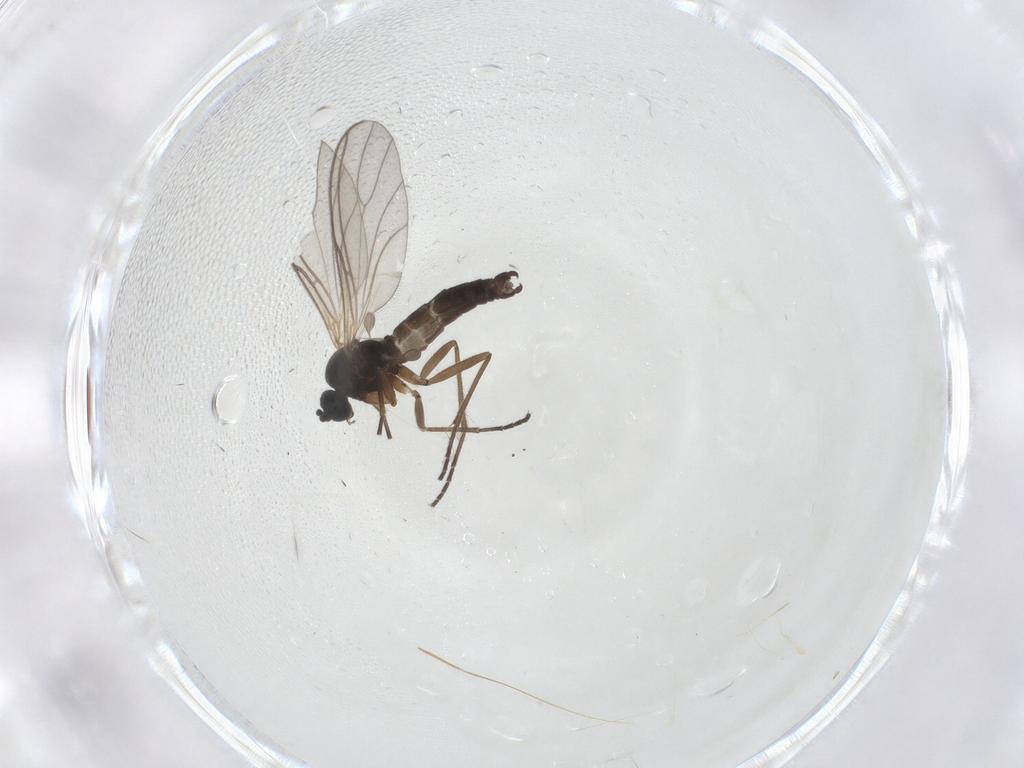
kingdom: Animalia
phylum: Arthropoda
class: Insecta
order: Diptera
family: Cecidomyiidae
